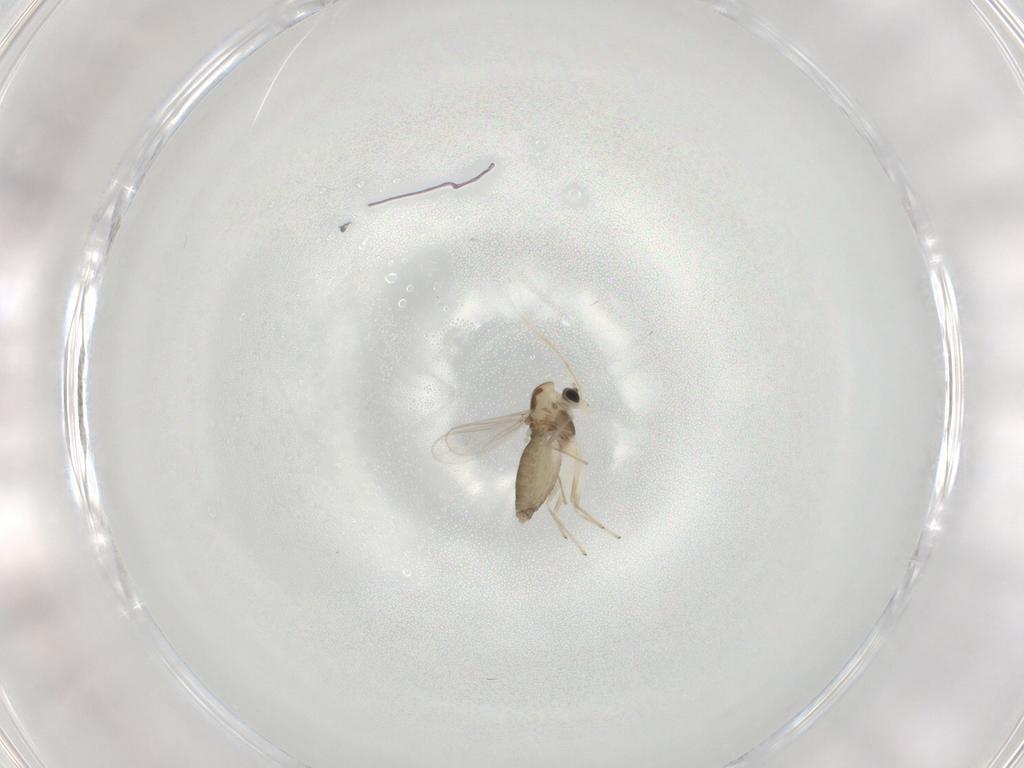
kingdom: Animalia
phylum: Arthropoda
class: Insecta
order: Diptera
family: Chironomidae
